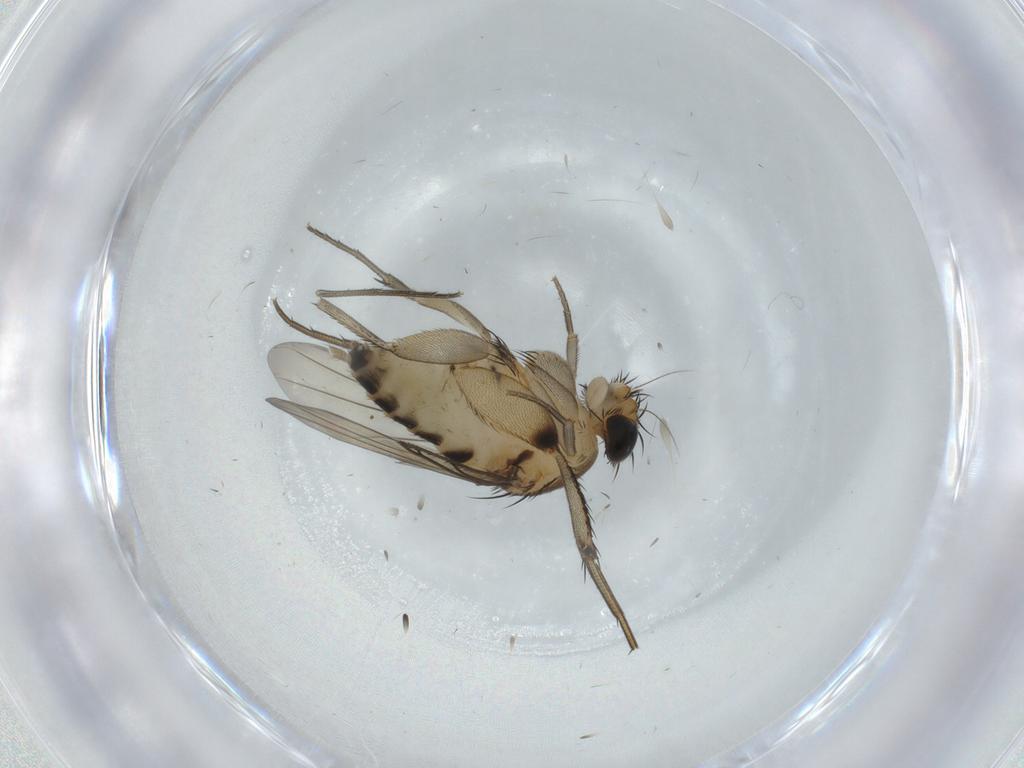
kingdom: Animalia
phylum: Arthropoda
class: Insecta
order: Diptera
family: Phoridae
